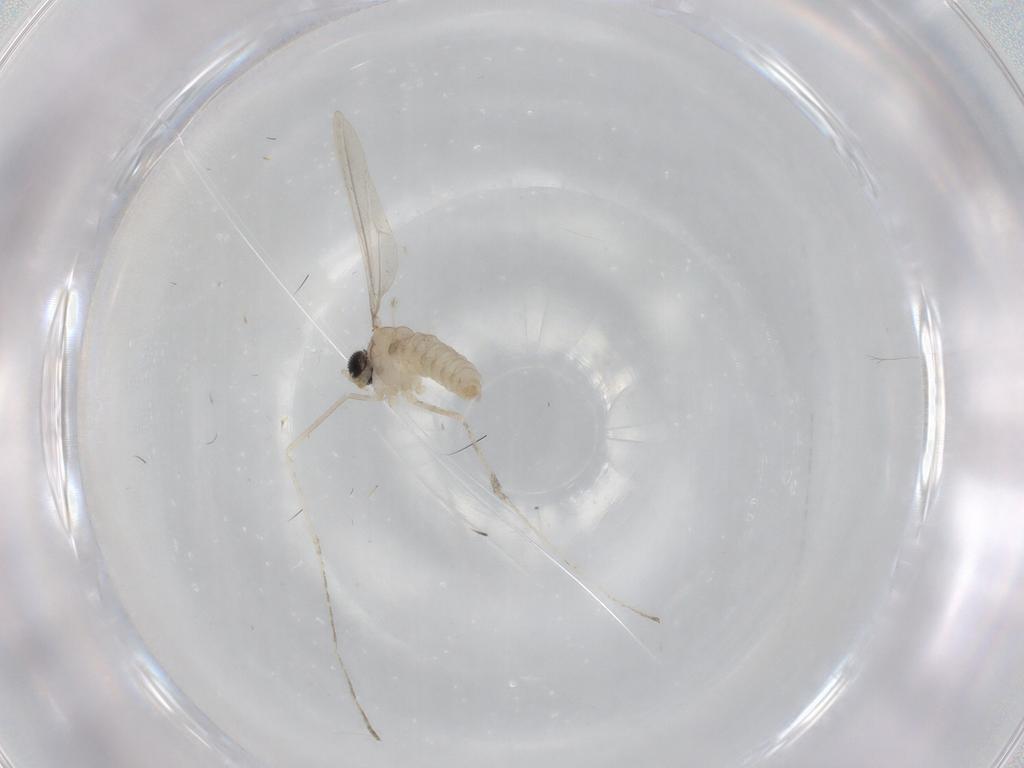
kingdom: Animalia
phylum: Arthropoda
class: Insecta
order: Diptera
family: Cecidomyiidae
